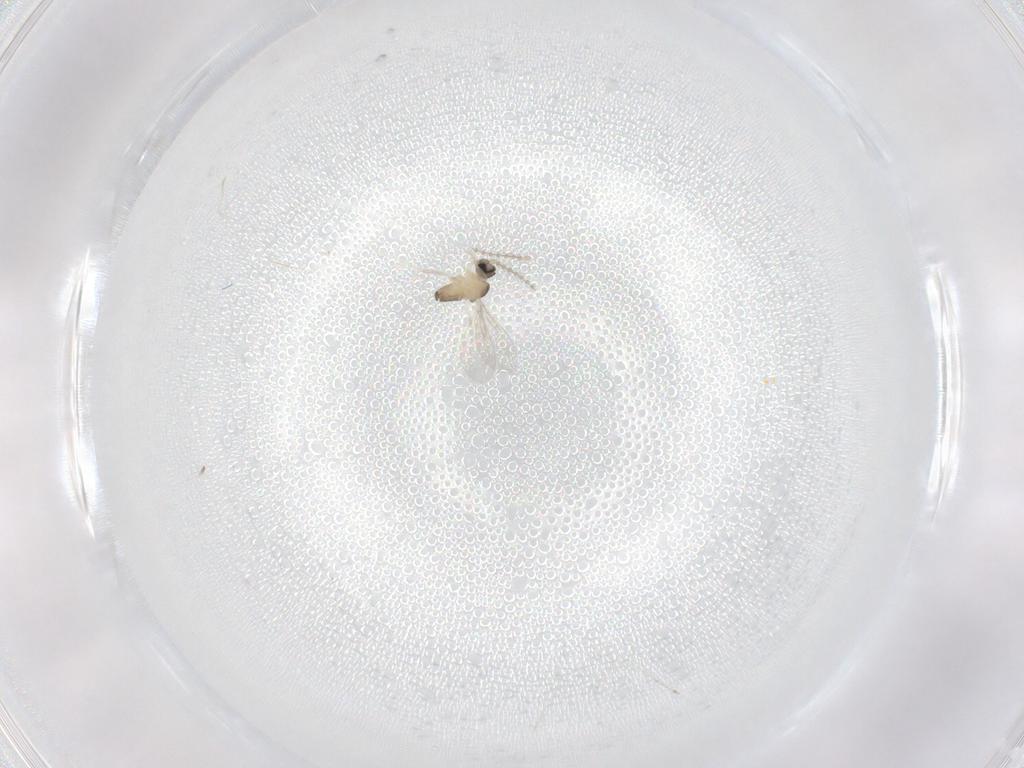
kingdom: Animalia
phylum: Arthropoda
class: Insecta
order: Diptera
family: Cecidomyiidae
